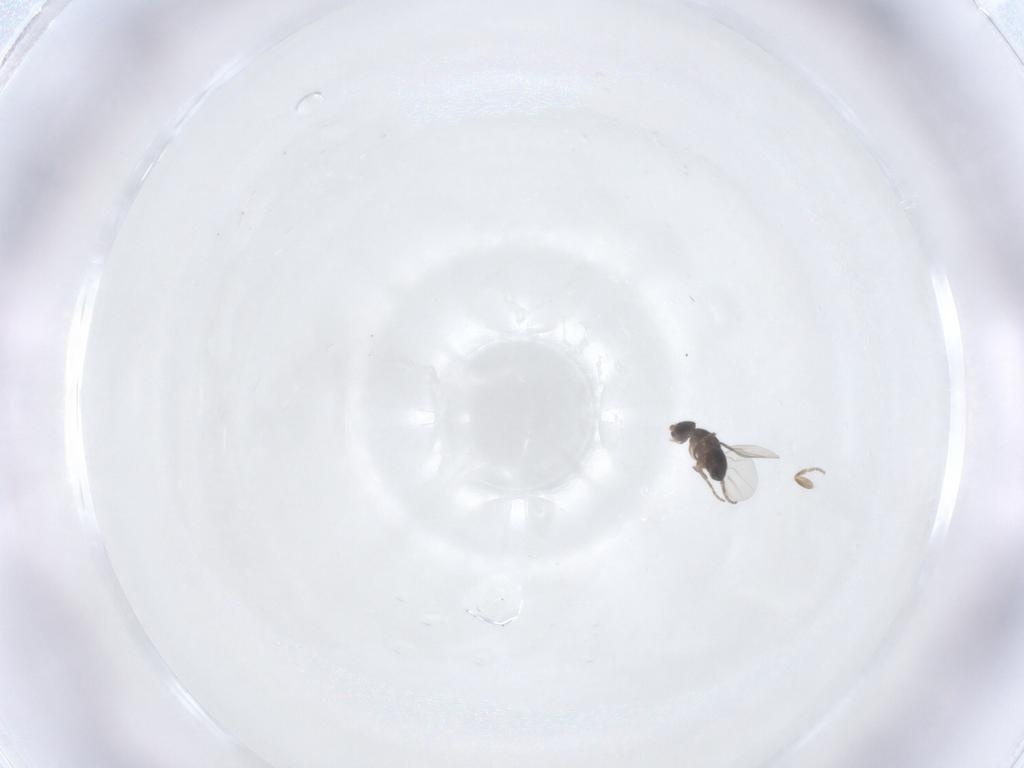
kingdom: Animalia
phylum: Arthropoda
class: Insecta
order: Diptera
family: Phoridae
